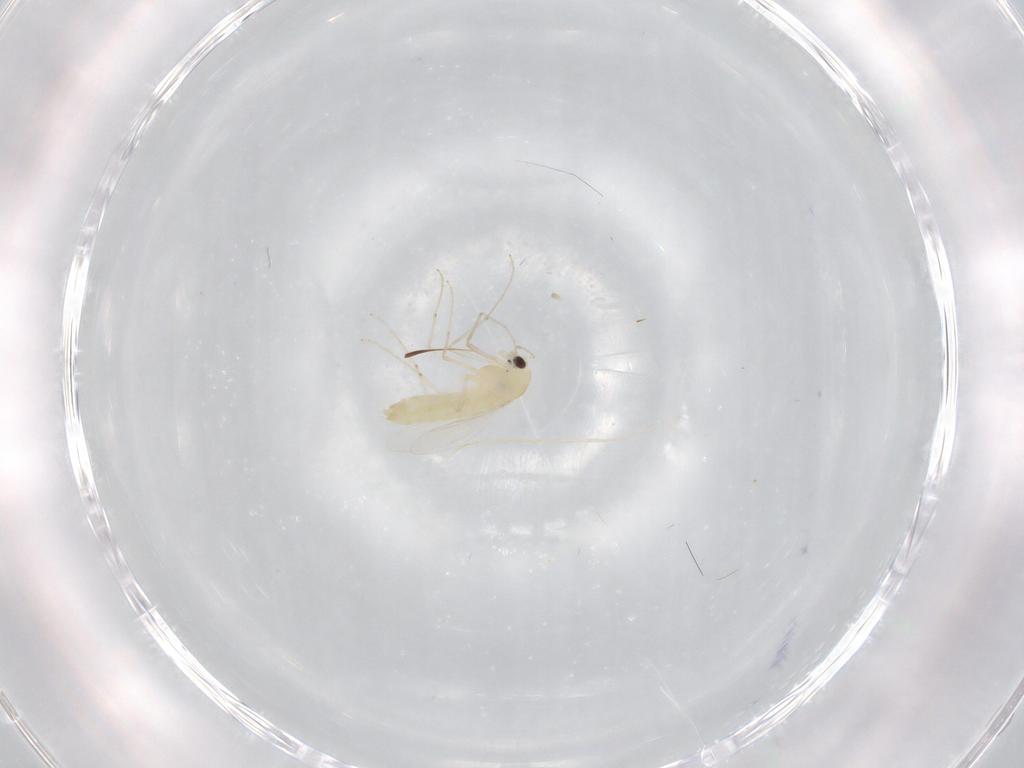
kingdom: Animalia
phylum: Arthropoda
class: Insecta
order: Diptera
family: Chironomidae
